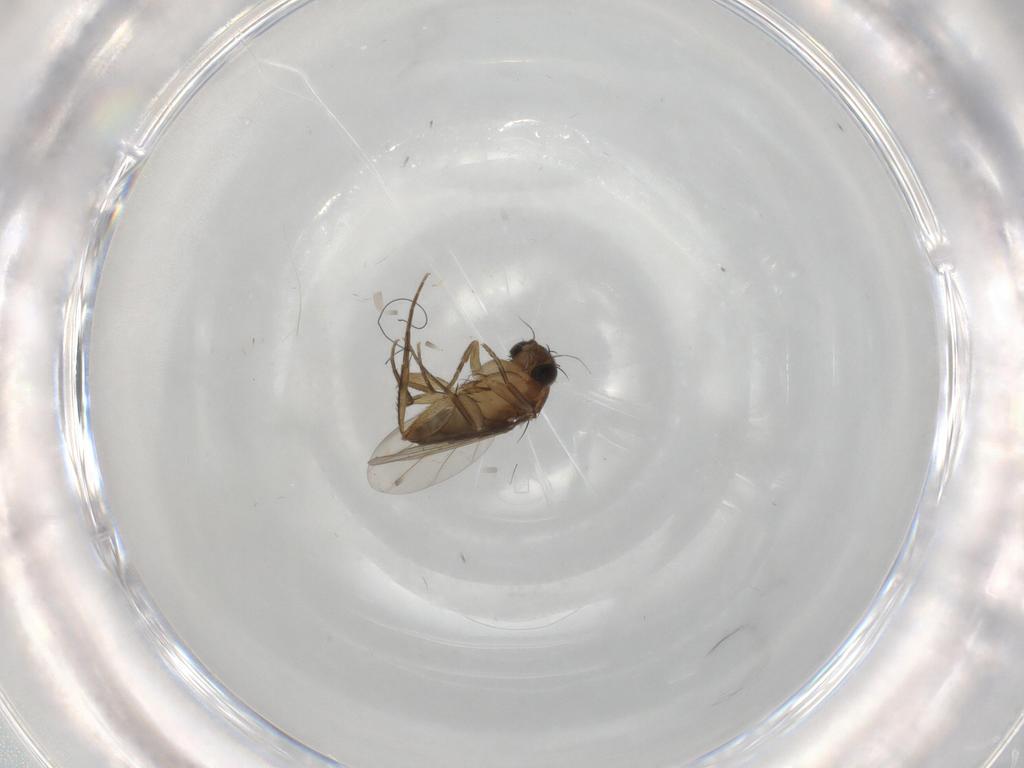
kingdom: Animalia
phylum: Arthropoda
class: Insecta
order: Diptera
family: Phoridae
